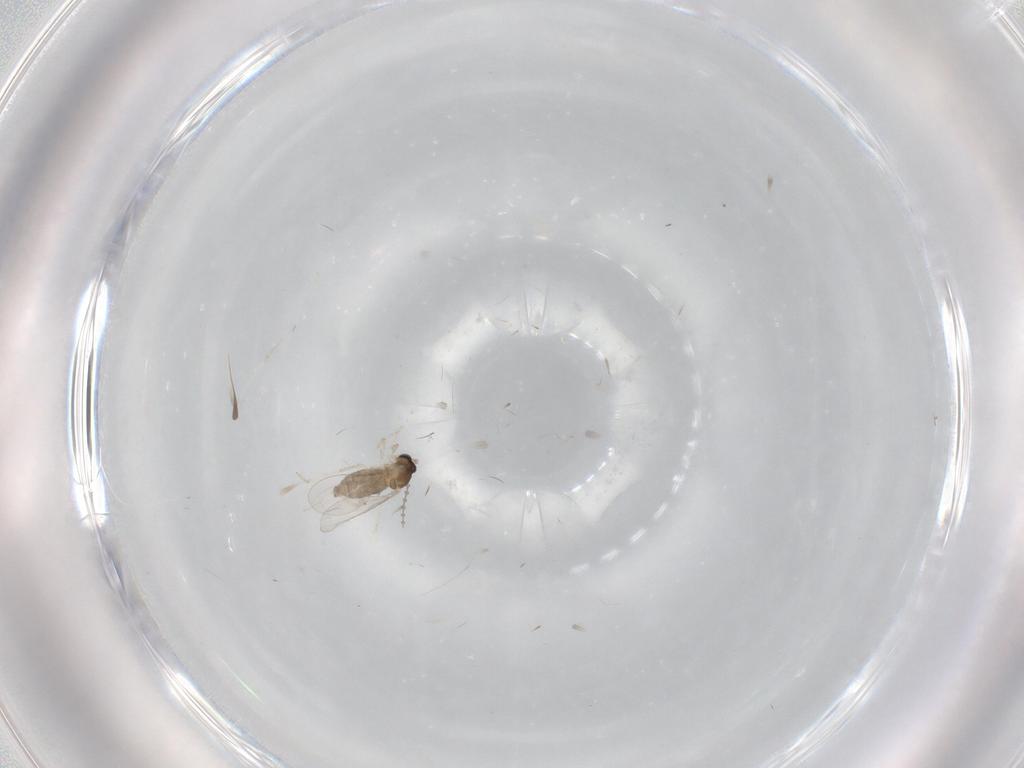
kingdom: Animalia
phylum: Arthropoda
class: Insecta
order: Diptera
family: Cecidomyiidae
